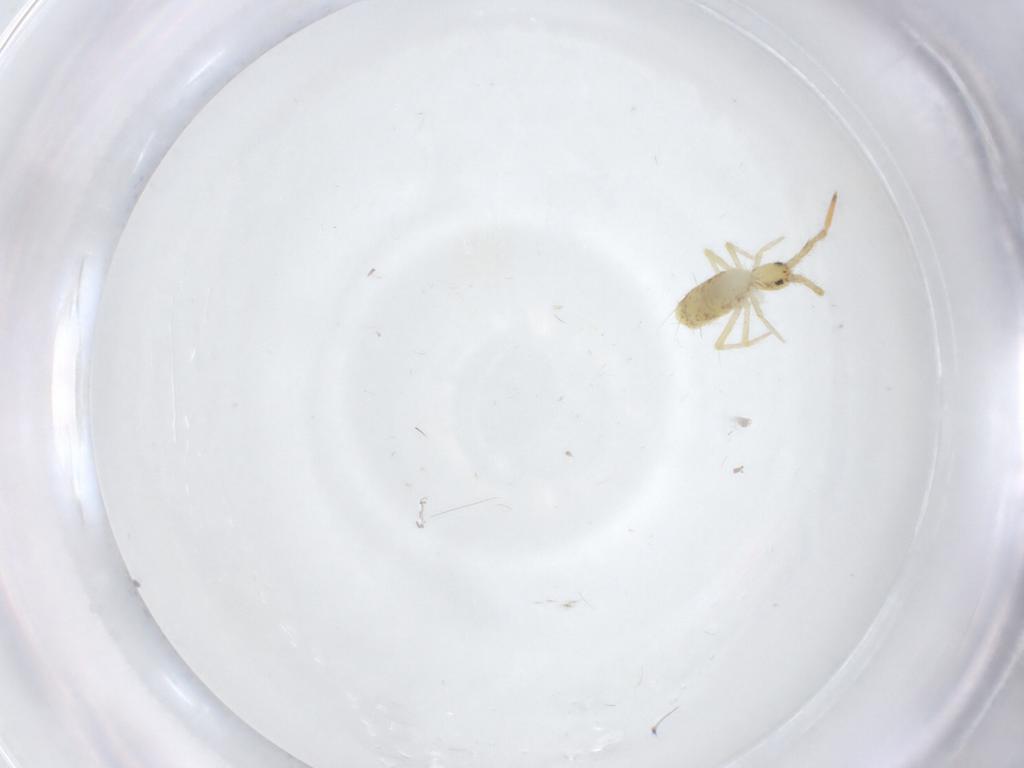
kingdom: Animalia
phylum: Arthropoda
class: Collembola
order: Entomobryomorpha
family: Entomobryidae
